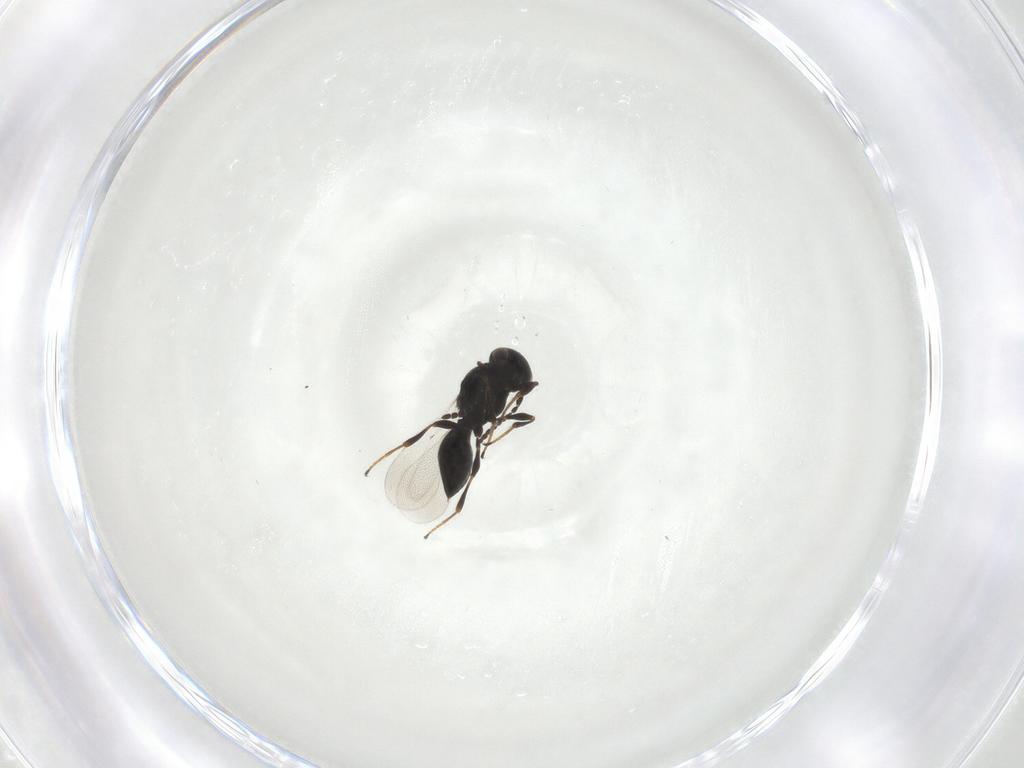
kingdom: Animalia
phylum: Arthropoda
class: Insecta
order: Hymenoptera
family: Platygastridae
